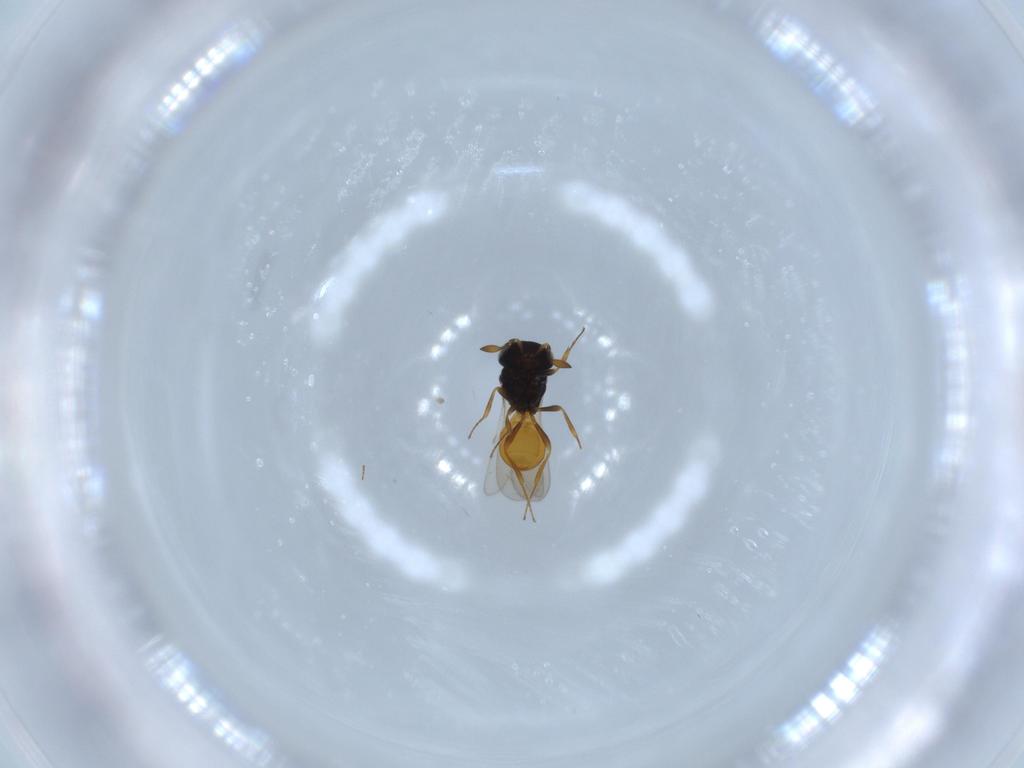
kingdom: Animalia
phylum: Arthropoda
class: Insecta
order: Hymenoptera
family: Scelionidae
